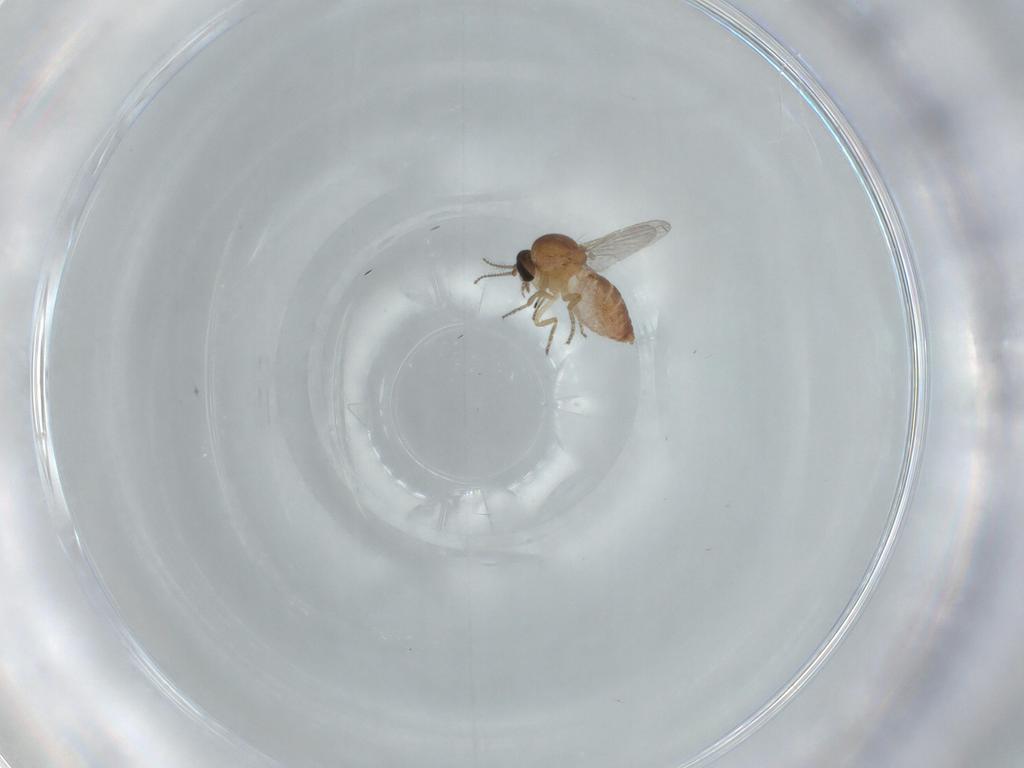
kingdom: Animalia
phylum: Arthropoda
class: Insecta
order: Diptera
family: Ceratopogonidae
